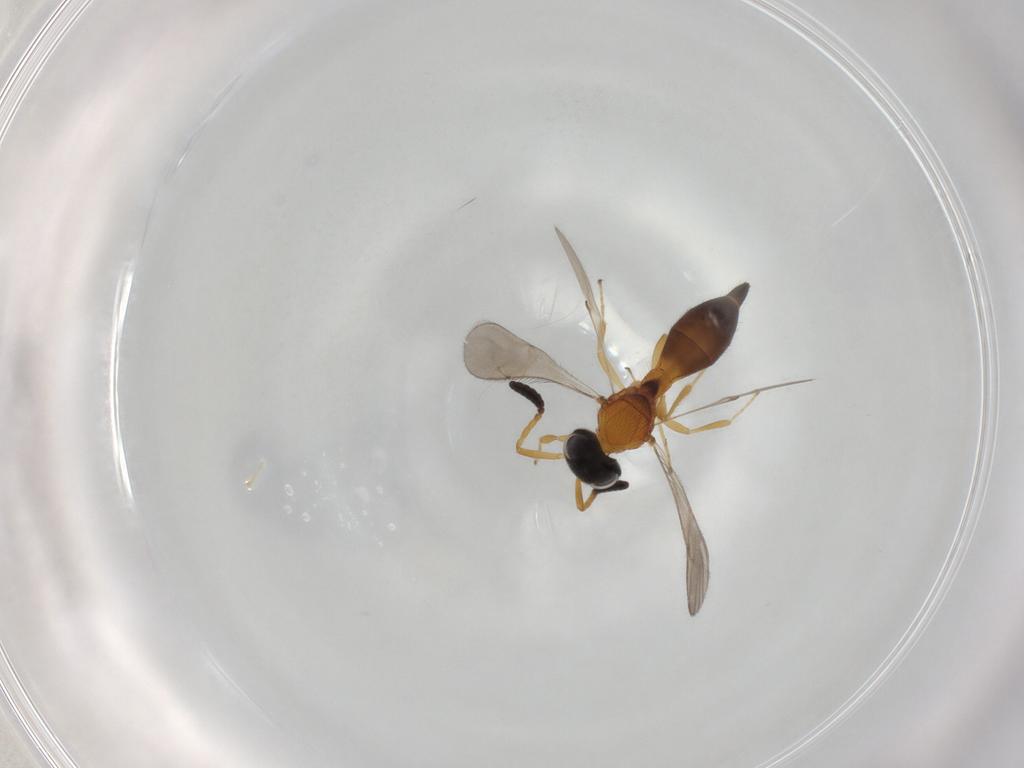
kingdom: Animalia
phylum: Arthropoda
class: Insecta
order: Hymenoptera
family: Scelionidae
